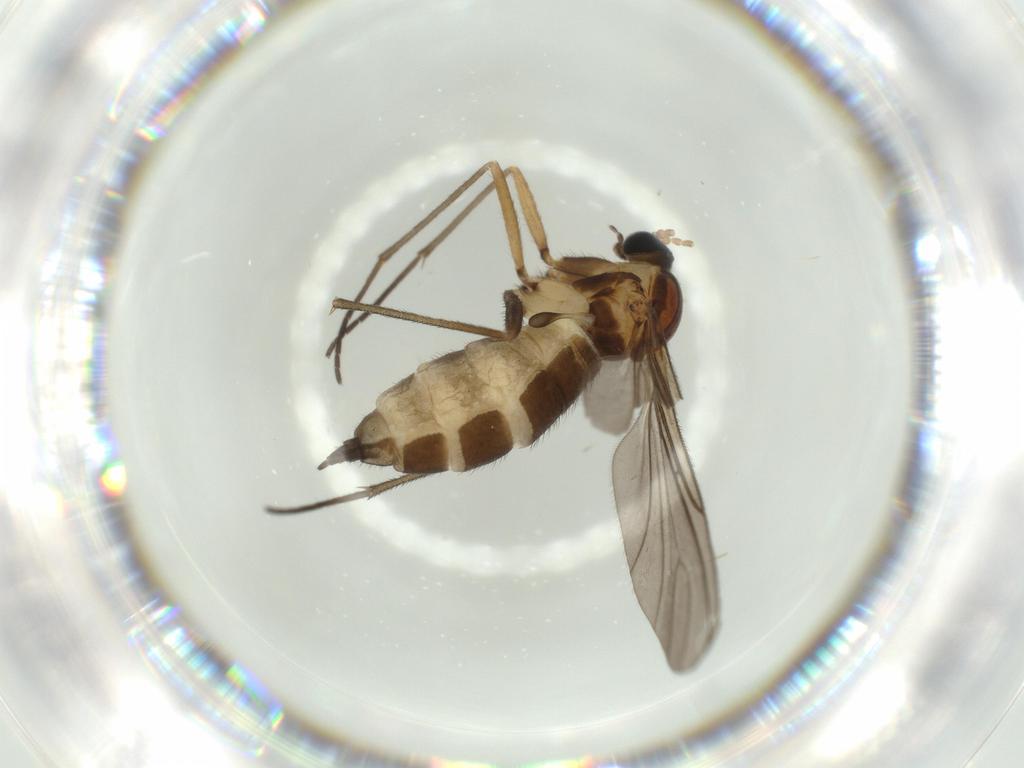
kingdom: Animalia
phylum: Arthropoda
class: Insecta
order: Diptera
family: Sciaridae
